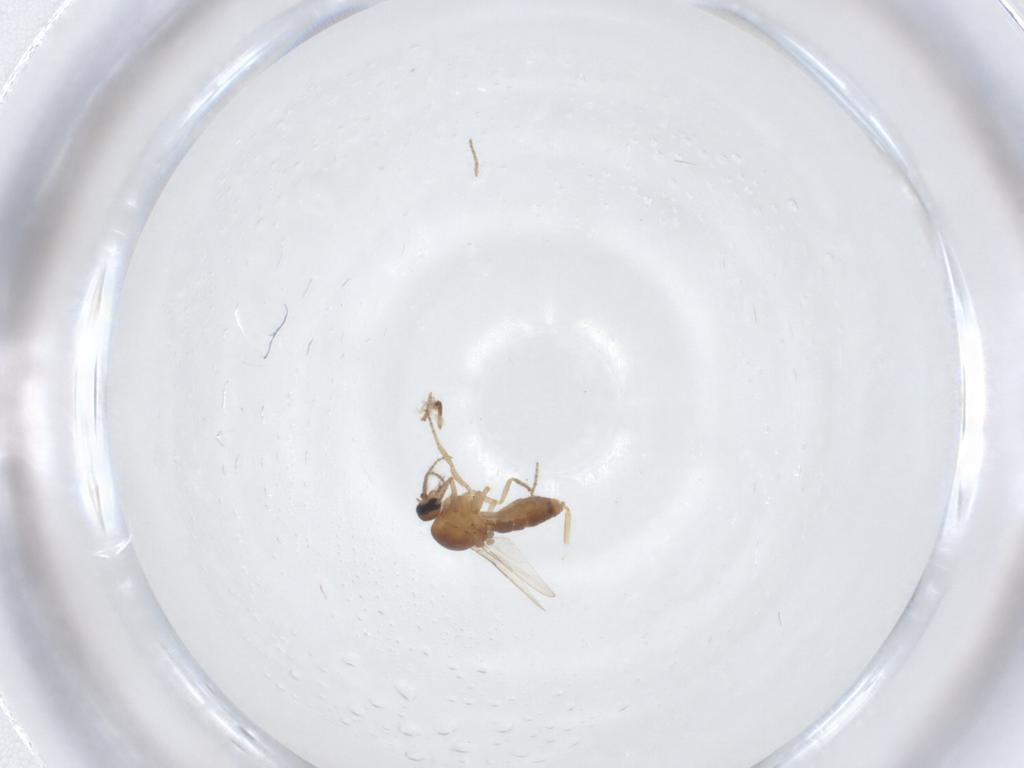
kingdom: Animalia
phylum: Arthropoda
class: Insecta
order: Diptera
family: Ceratopogonidae
